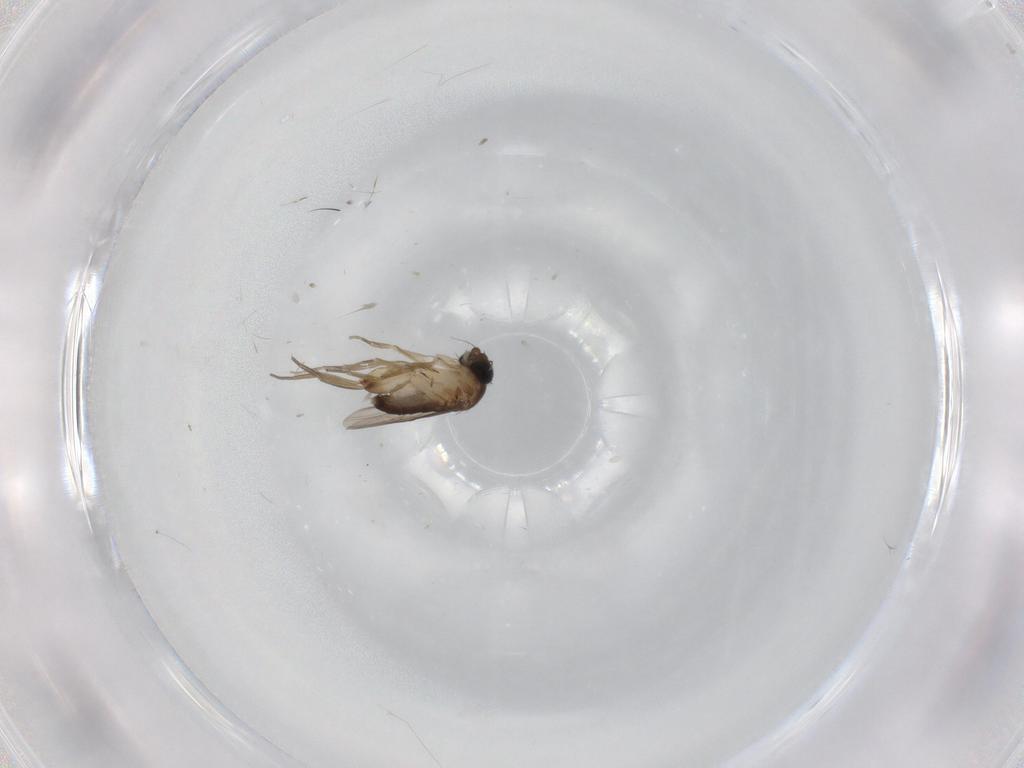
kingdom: Animalia
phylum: Arthropoda
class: Insecta
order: Diptera
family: Phoridae
